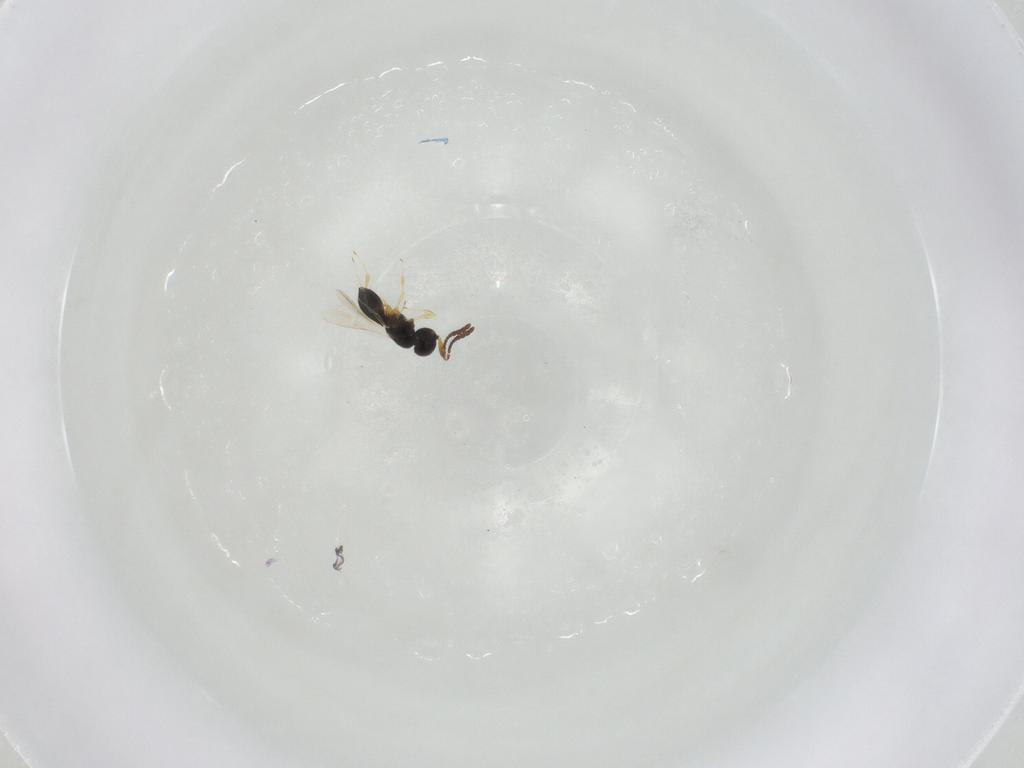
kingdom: Animalia
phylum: Arthropoda
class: Insecta
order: Hymenoptera
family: Scelionidae
